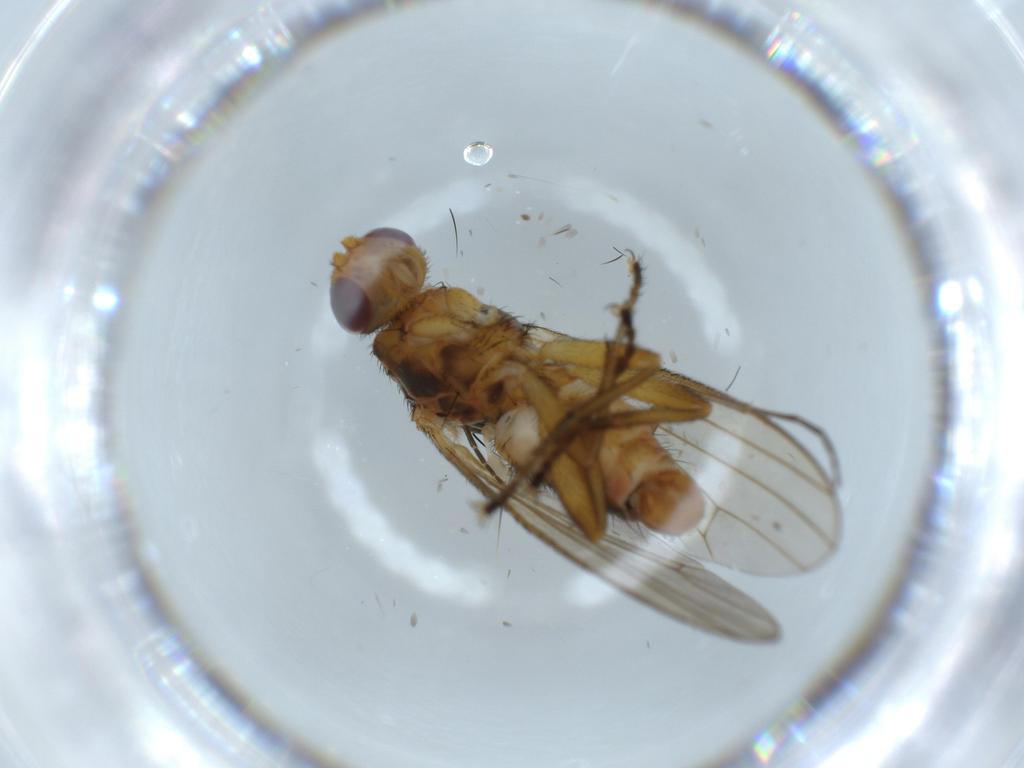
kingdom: Animalia
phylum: Arthropoda
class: Insecta
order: Diptera
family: Heleomyzidae
